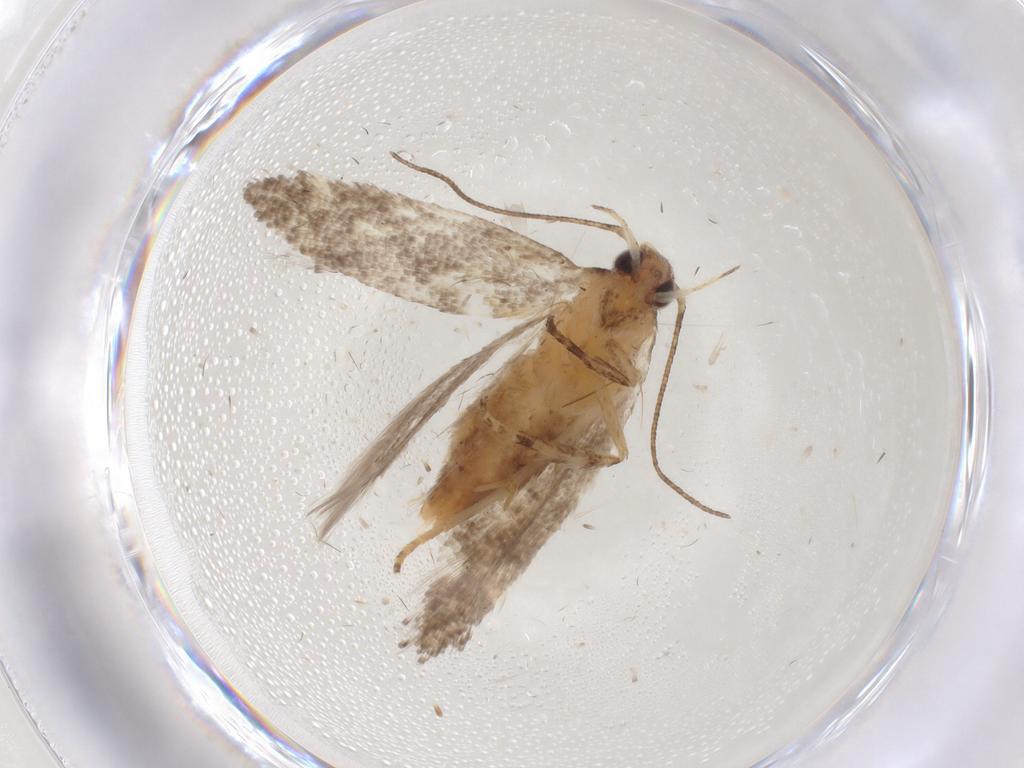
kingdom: Animalia
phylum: Arthropoda
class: Insecta
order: Lepidoptera
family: Gelechiidae
